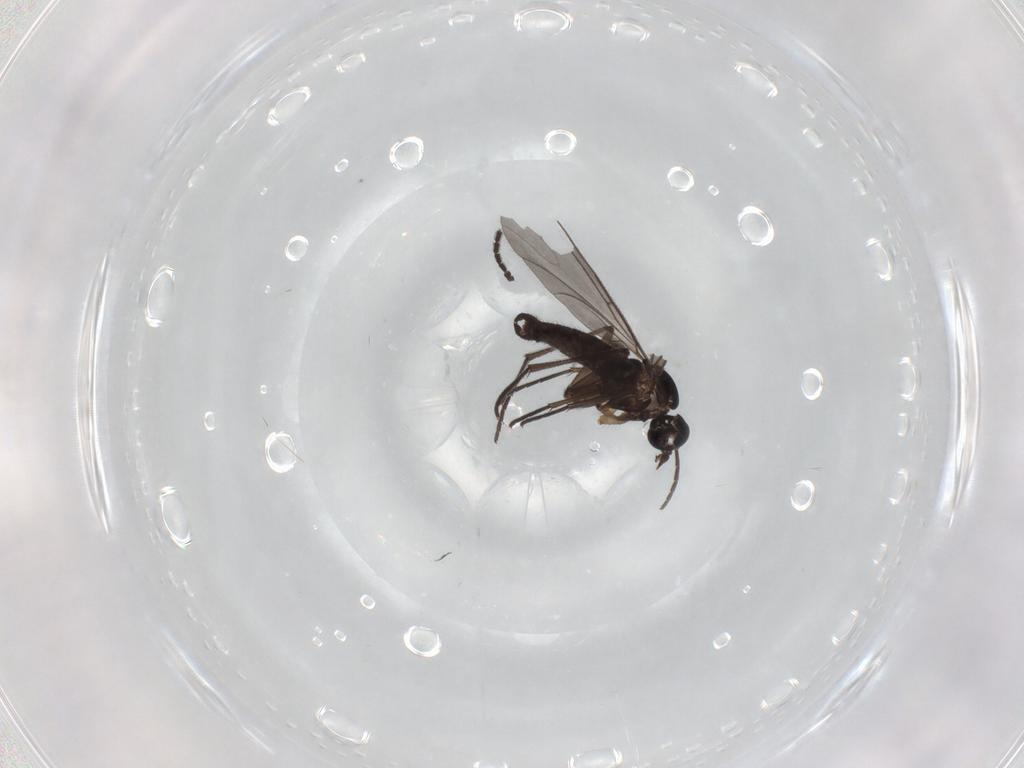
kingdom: Animalia
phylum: Arthropoda
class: Insecta
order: Diptera
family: Sciaridae
